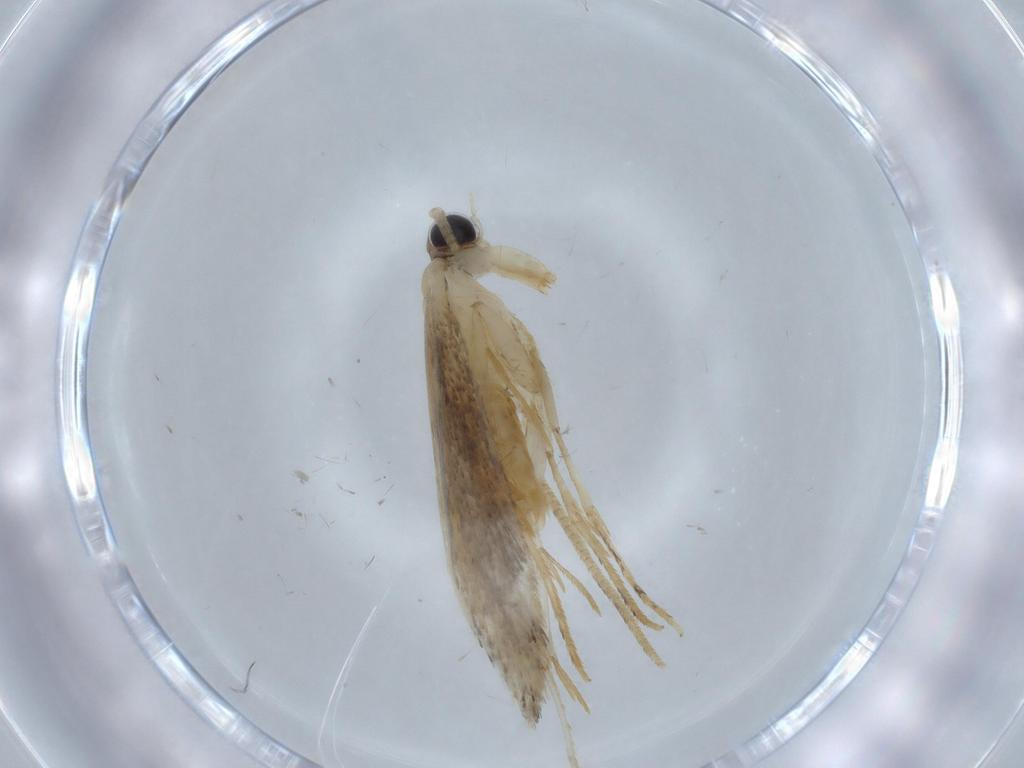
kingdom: Animalia
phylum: Arthropoda
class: Insecta
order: Lepidoptera
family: Tineidae
